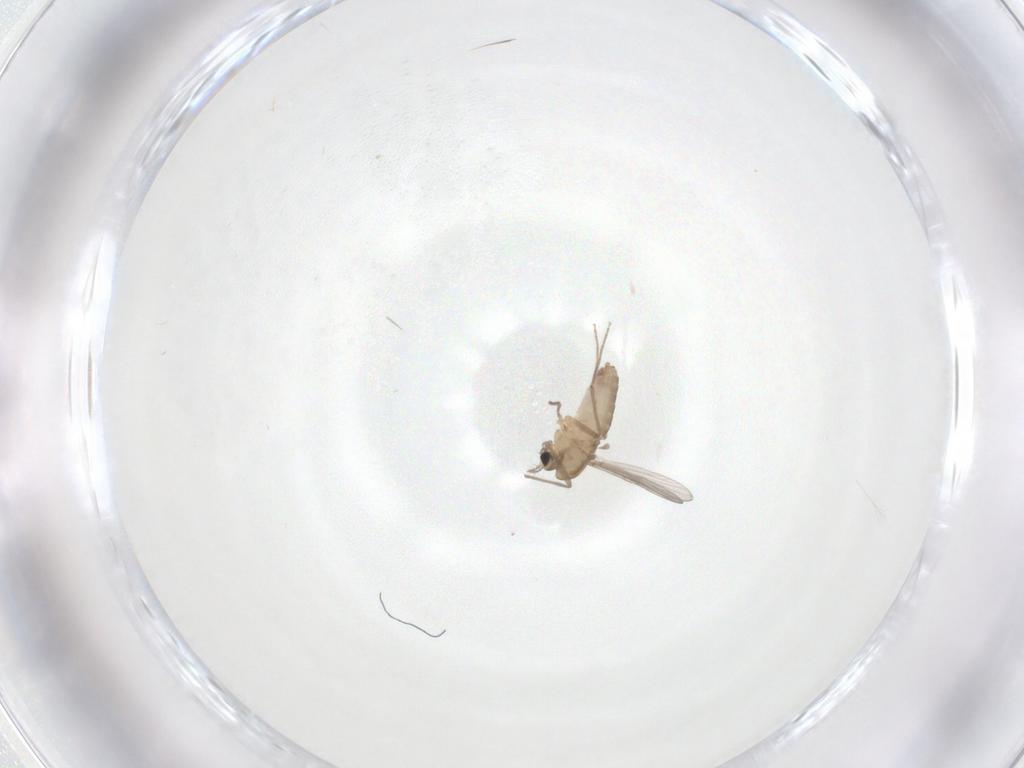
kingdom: Animalia
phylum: Arthropoda
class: Insecta
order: Diptera
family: Chironomidae
